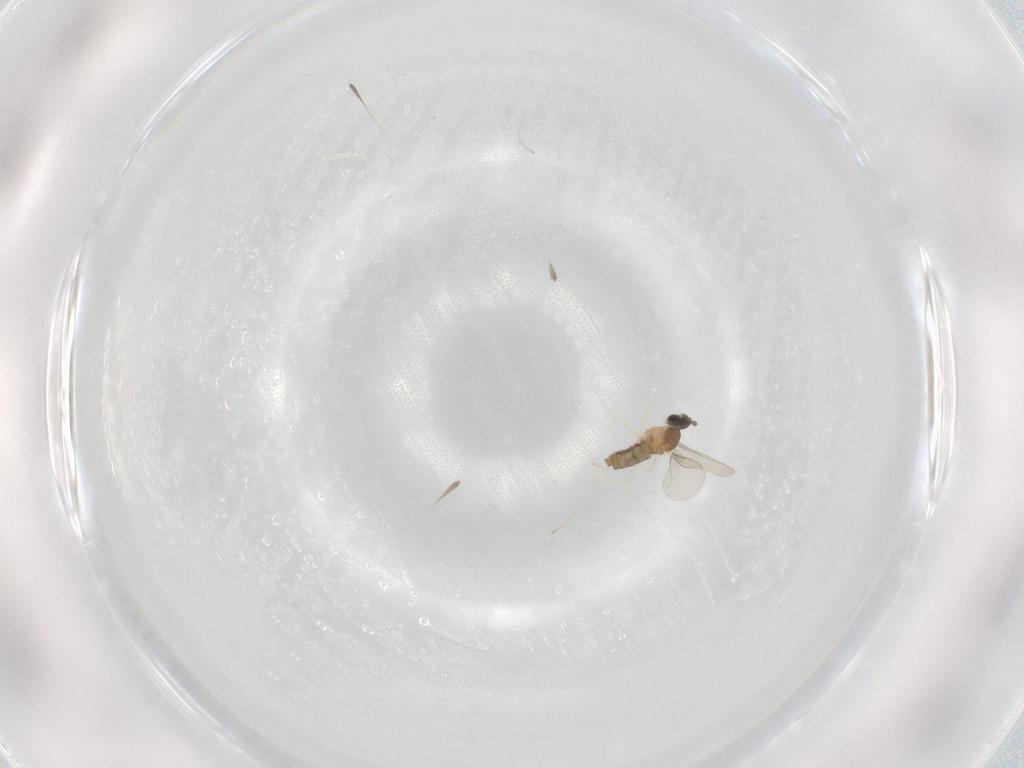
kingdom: Animalia
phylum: Arthropoda
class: Insecta
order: Diptera
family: Cecidomyiidae
